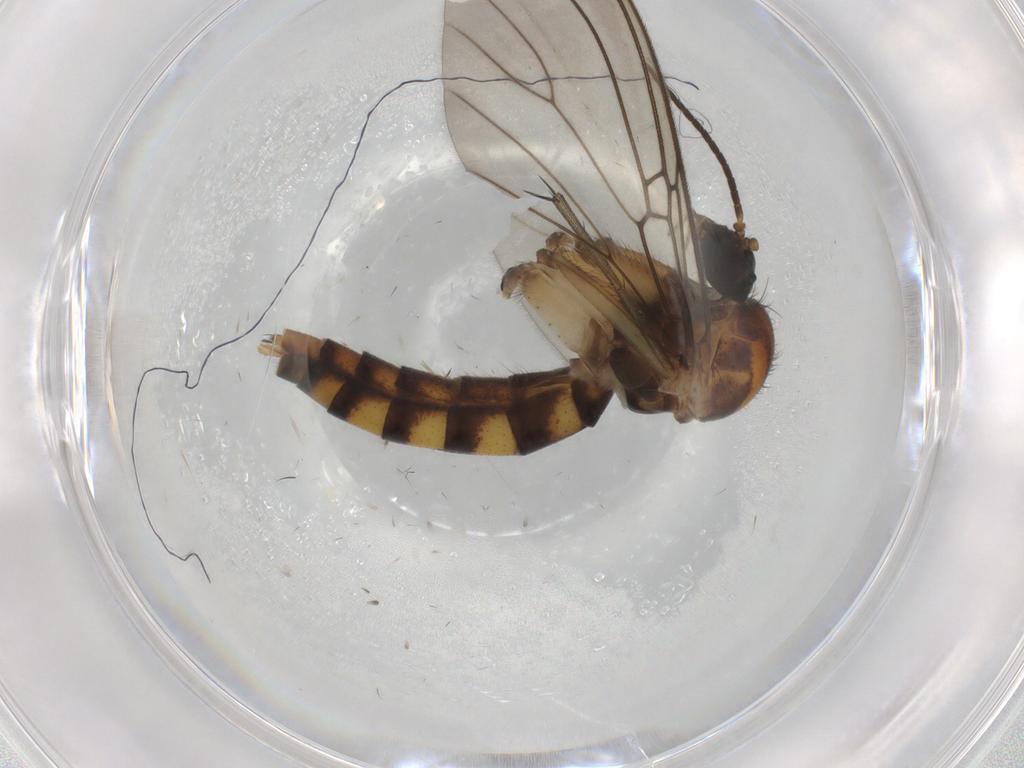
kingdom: Animalia
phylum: Arthropoda
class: Insecta
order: Diptera
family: Mycetophilidae
